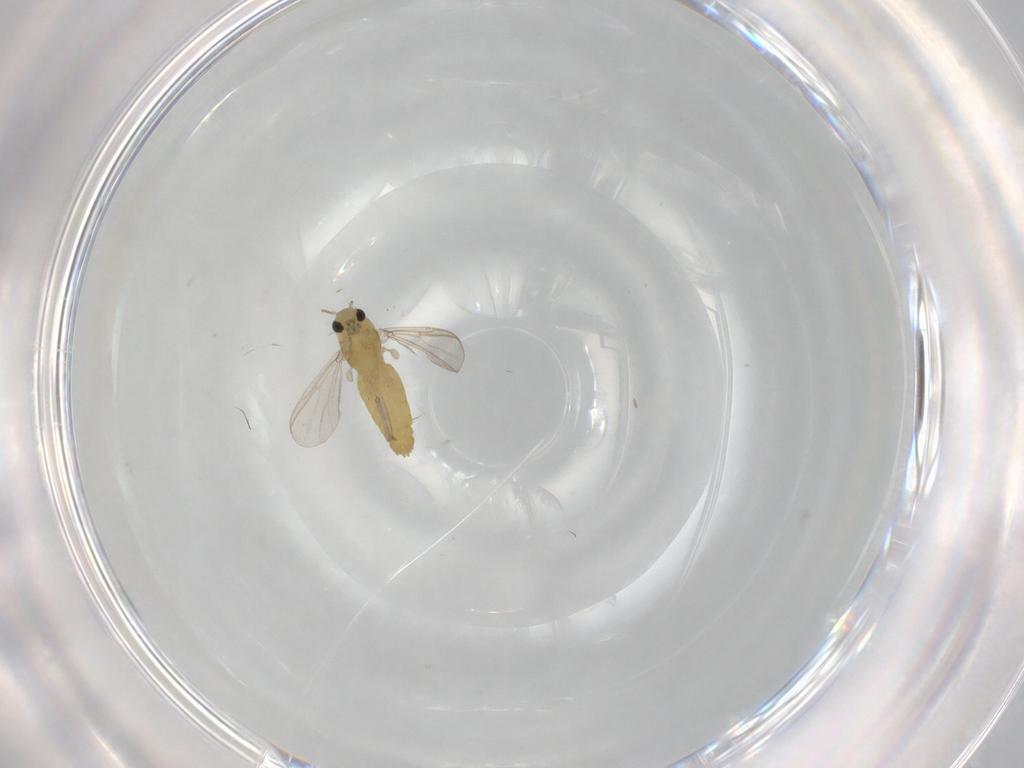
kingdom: Animalia
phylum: Arthropoda
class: Insecta
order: Diptera
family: Chironomidae
